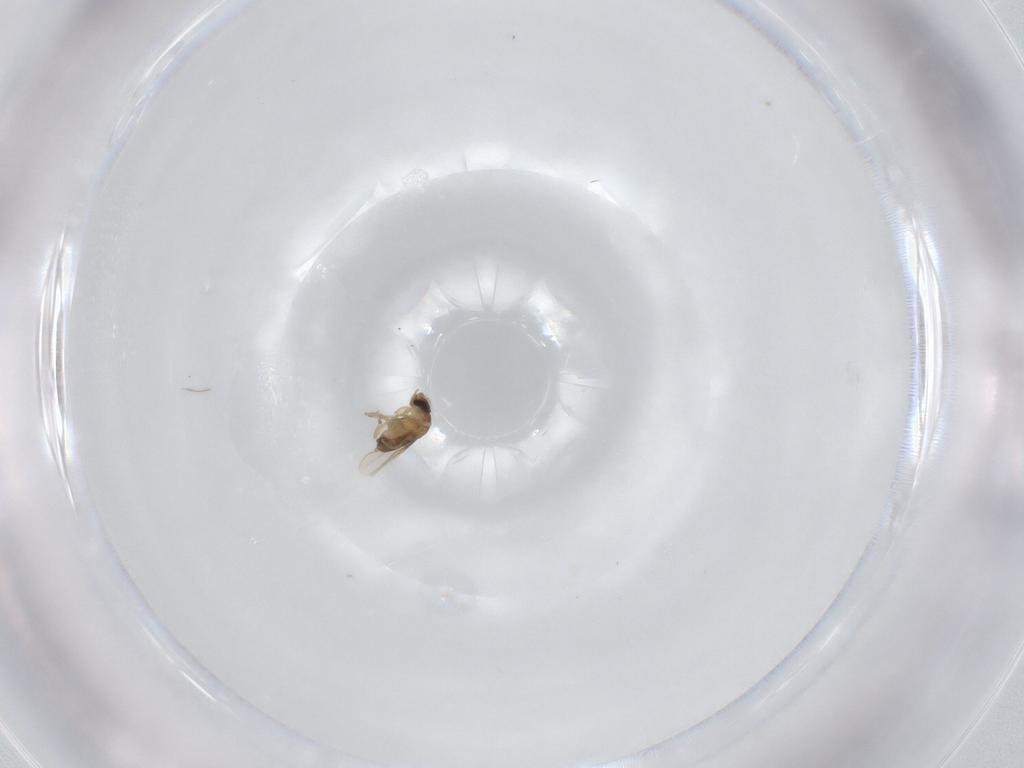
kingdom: Animalia
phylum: Arthropoda
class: Insecta
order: Diptera
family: Phoridae
